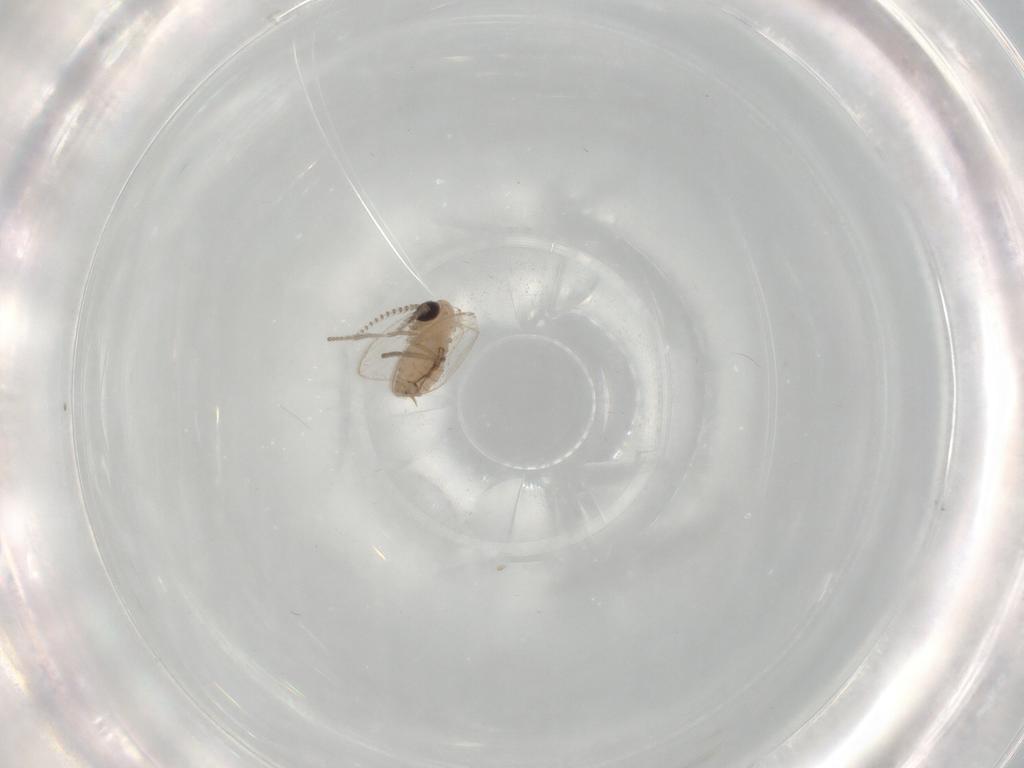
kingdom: Animalia
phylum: Arthropoda
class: Insecta
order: Diptera
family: Psychodidae
